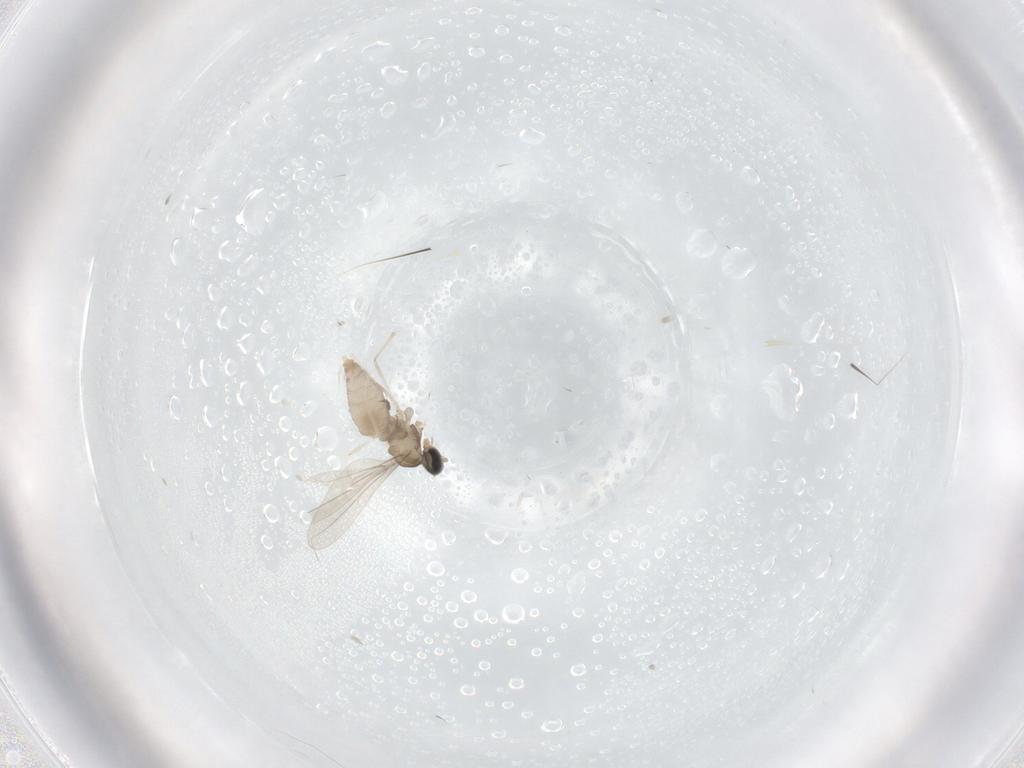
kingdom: Animalia
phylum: Arthropoda
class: Insecta
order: Diptera
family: Cecidomyiidae
